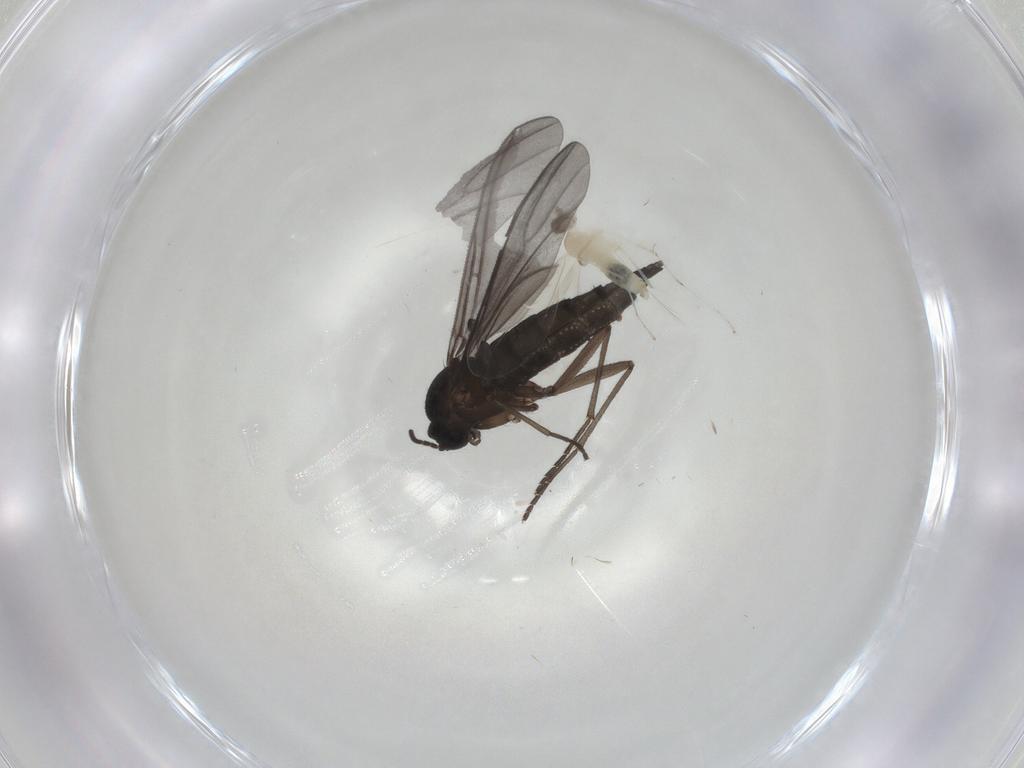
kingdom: Animalia
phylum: Arthropoda
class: Insecta
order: Diptera
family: Cecidomyiidae
